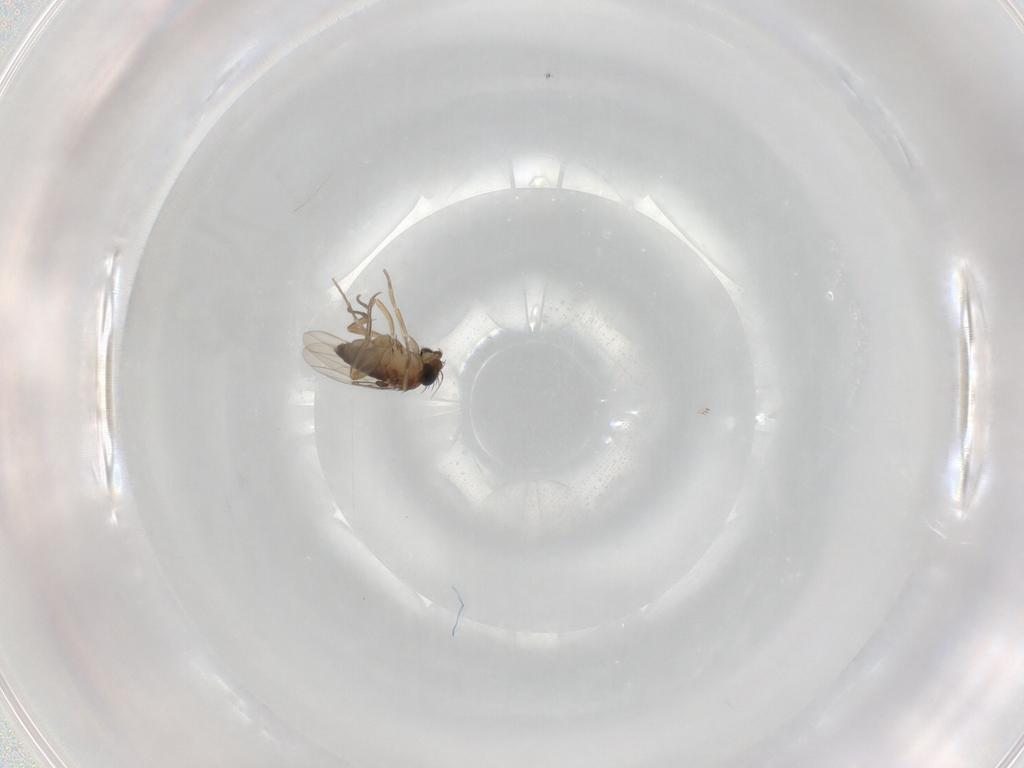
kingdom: Animalia
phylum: Arthropoda
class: Insecta
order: Diptera
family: Phoridae
